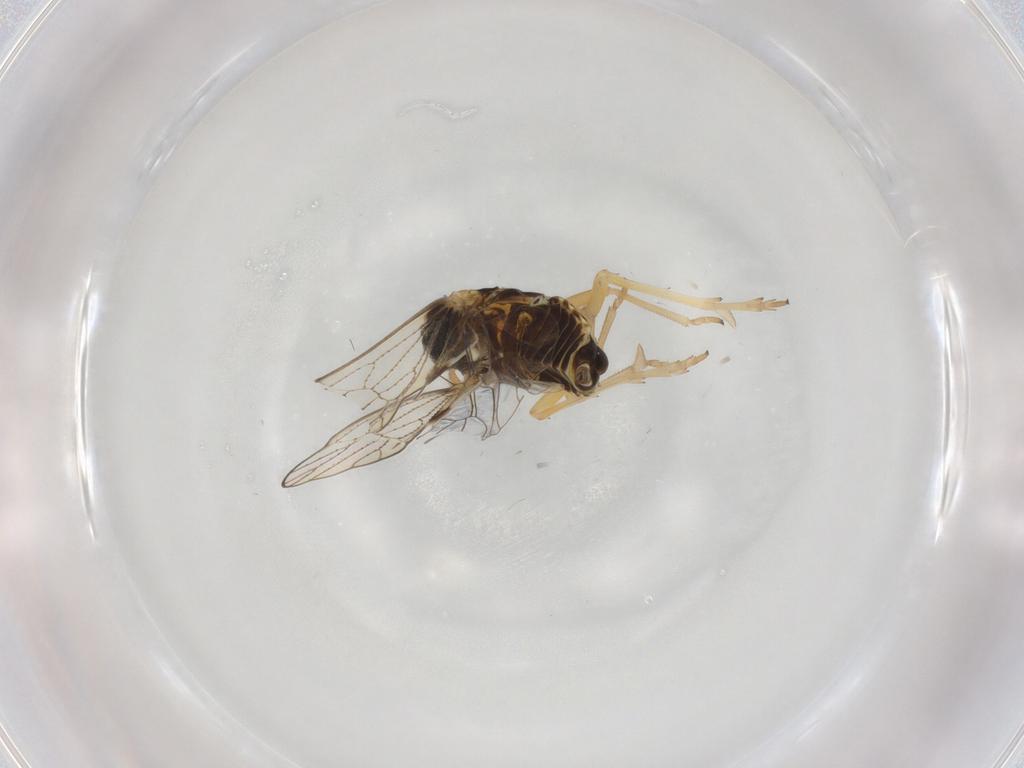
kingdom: Animalia
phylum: Arthropoda
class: Insecta
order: Hemiptera
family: Cicadellidae
